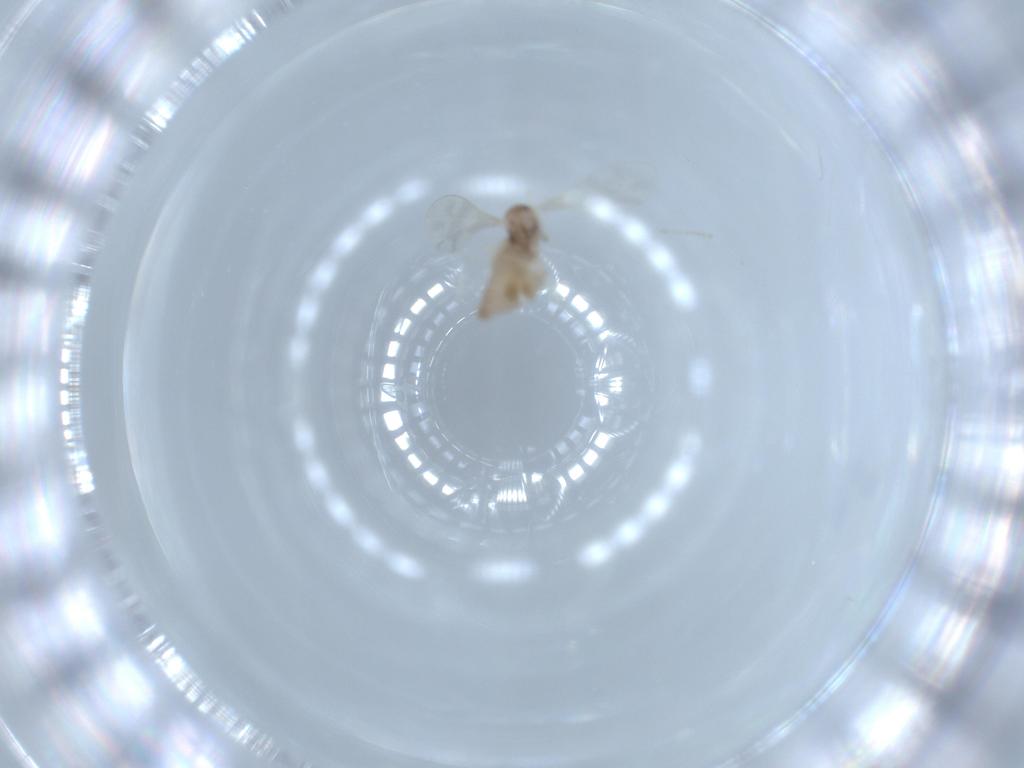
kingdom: Animalia
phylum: Arthropoda
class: Insecta
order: Diptera
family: Cecidomyiidae
